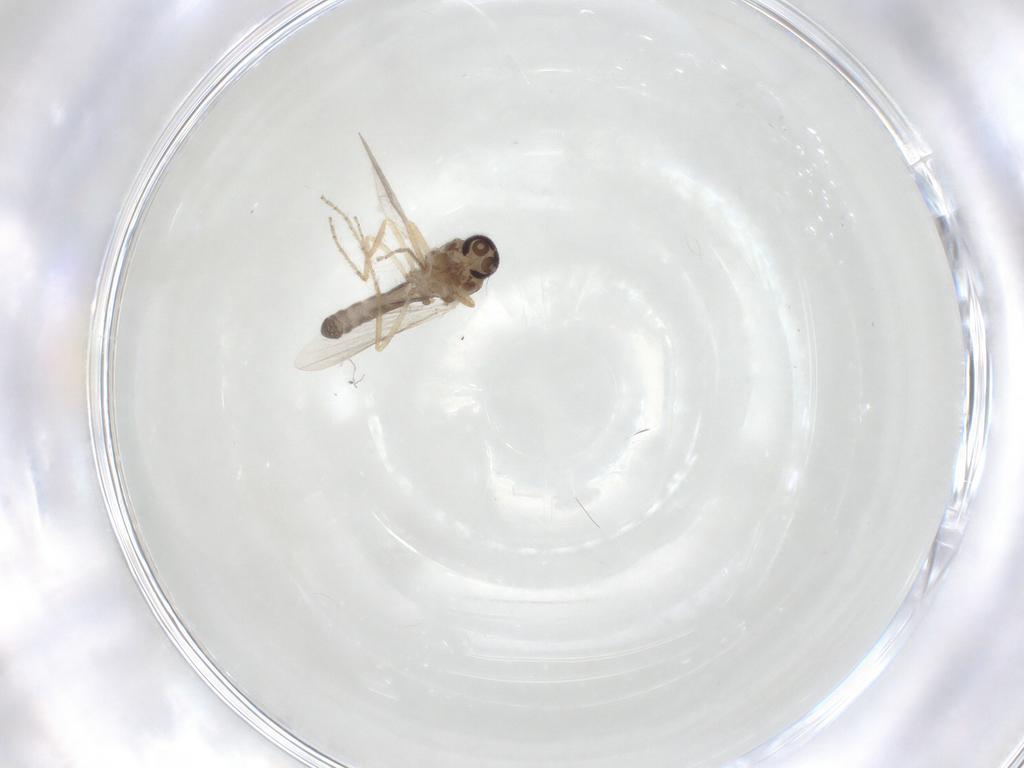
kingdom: Animalia
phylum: Arthropoda
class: Insecta
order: Diptera
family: Ceratopogonidae
